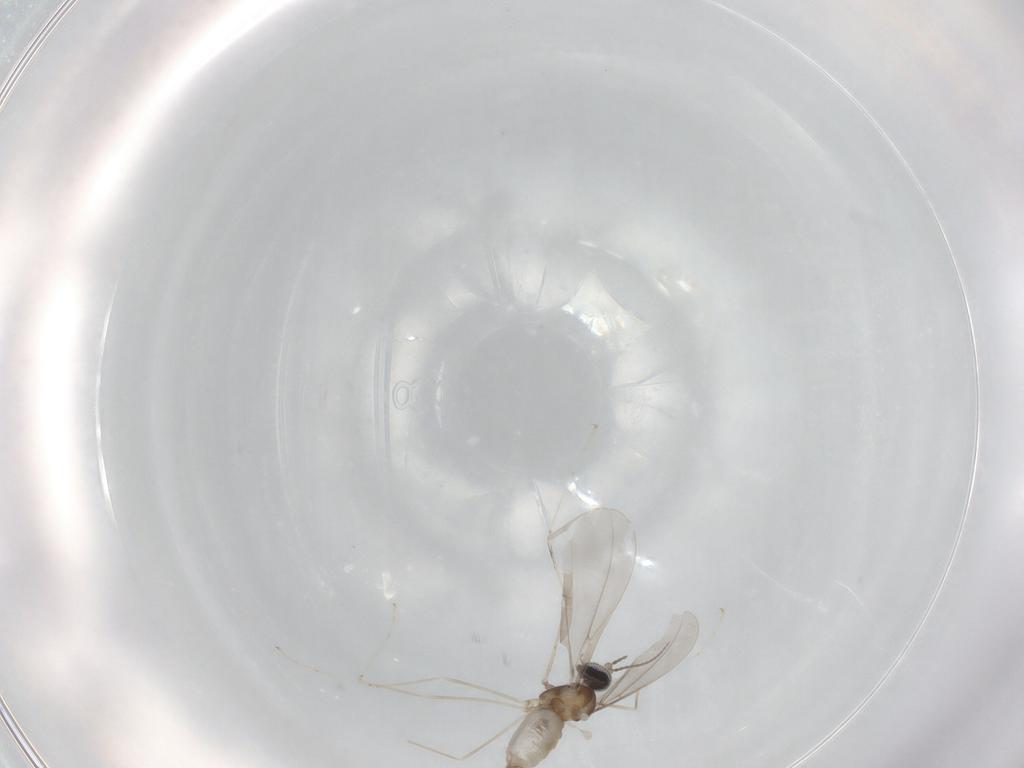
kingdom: Animalia
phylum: Arthropoda
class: Insecta
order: Diptera
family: Cecidomyiidae
